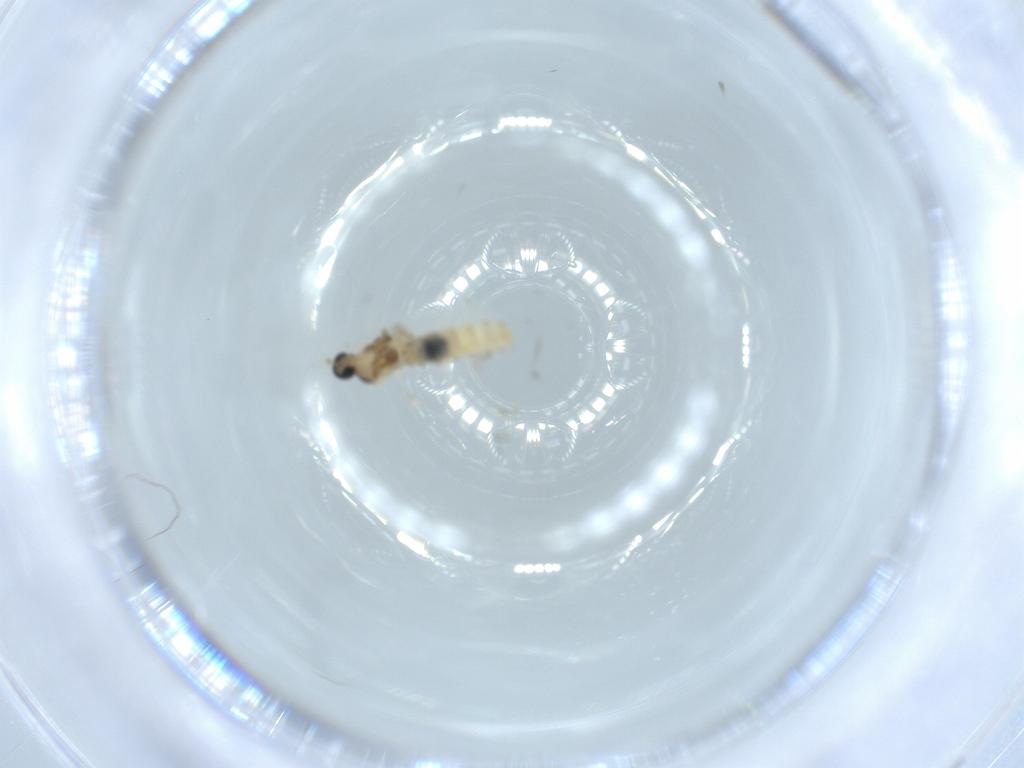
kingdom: Animalia
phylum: Arthropoda
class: Insecta
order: Diptera
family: Cecidomyiidae
